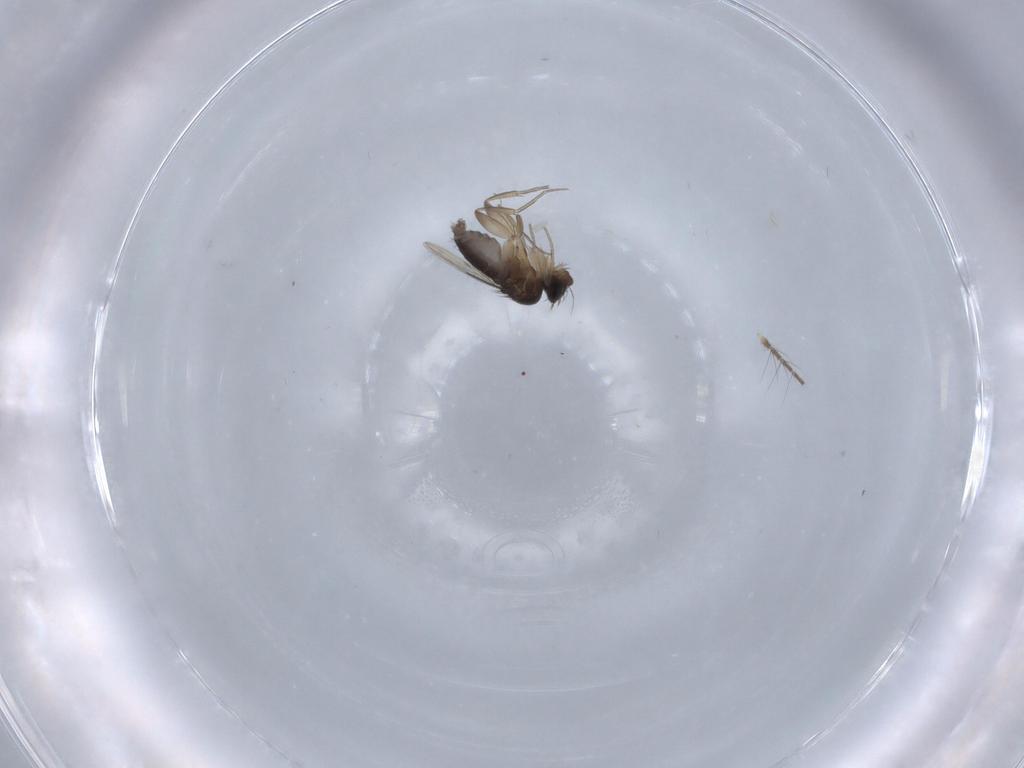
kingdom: Animalia
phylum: Arthropoda
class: Insecta
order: Diptera
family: Culicidae
